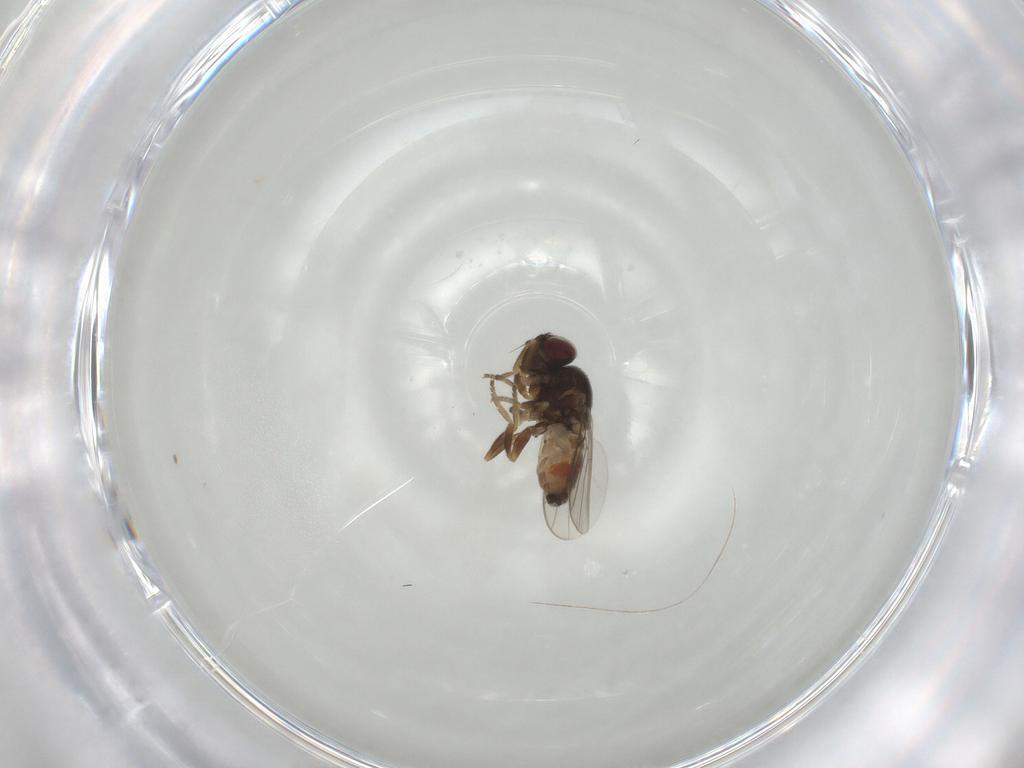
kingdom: Animalia
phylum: Arthropoda
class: Insecta
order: Diptera
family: Chloropidae
